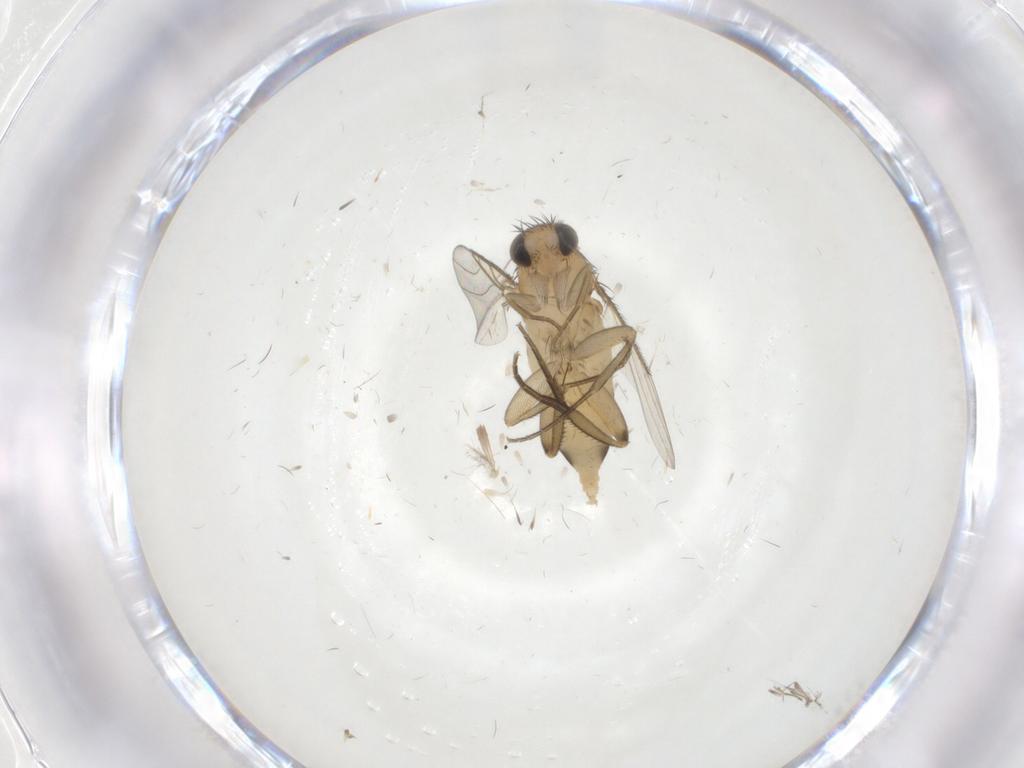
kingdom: Animalia
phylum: Arthropoda
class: Insecta
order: Diptera
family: Phoridae
